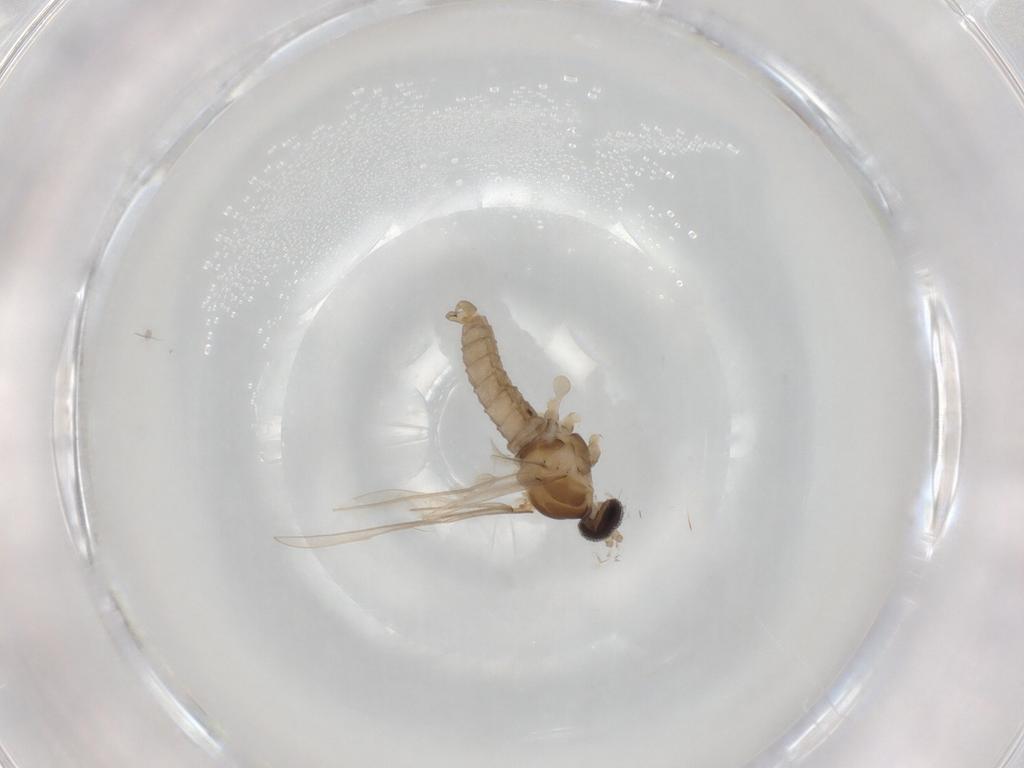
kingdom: Animalia
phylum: Arthropoda
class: Insecta
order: Diptera
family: Cecidomyiidae
